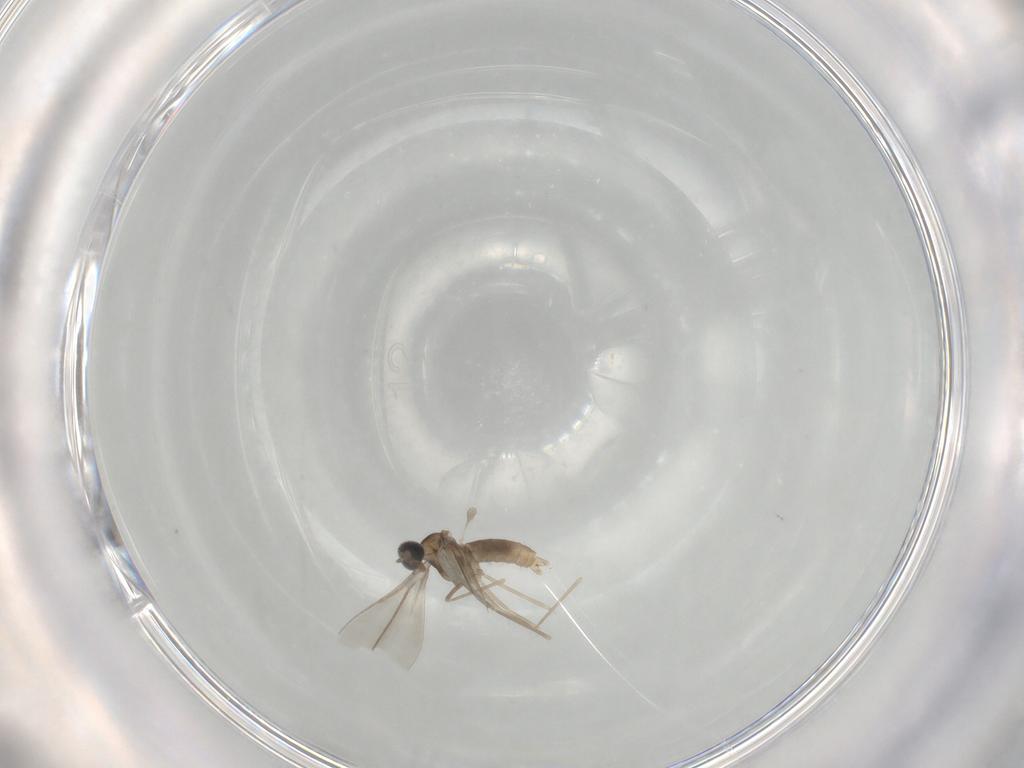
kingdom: Animalia
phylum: Arthropoda
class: Insecta
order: Diptera
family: Cecidomyiidae
